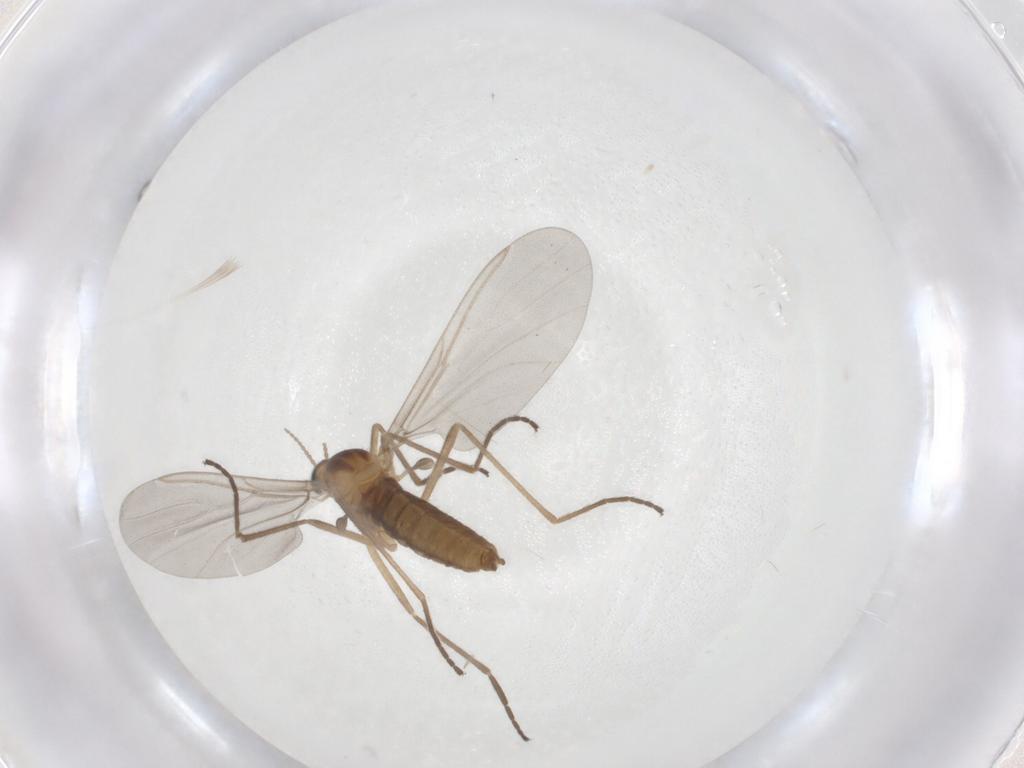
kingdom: Animalia
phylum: Arthropoda
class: Insecta
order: Hymenoptera
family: Platygastridae
